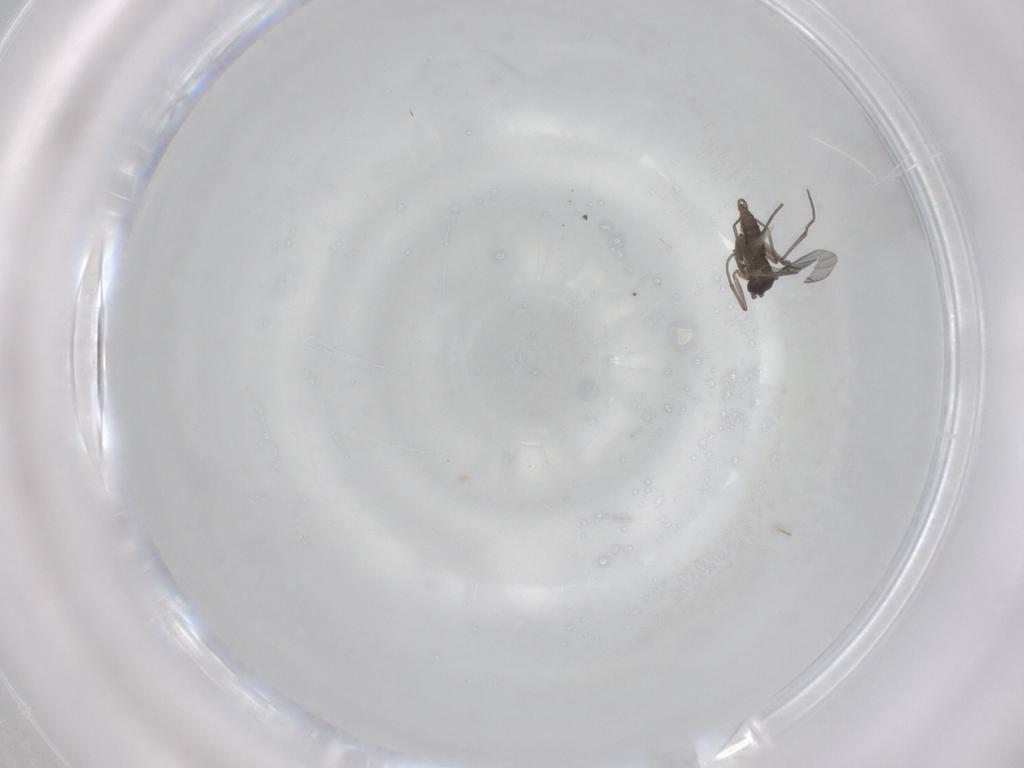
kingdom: Animalia
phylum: Arthropoda
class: Insecta
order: Diptera
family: Sciaridae
